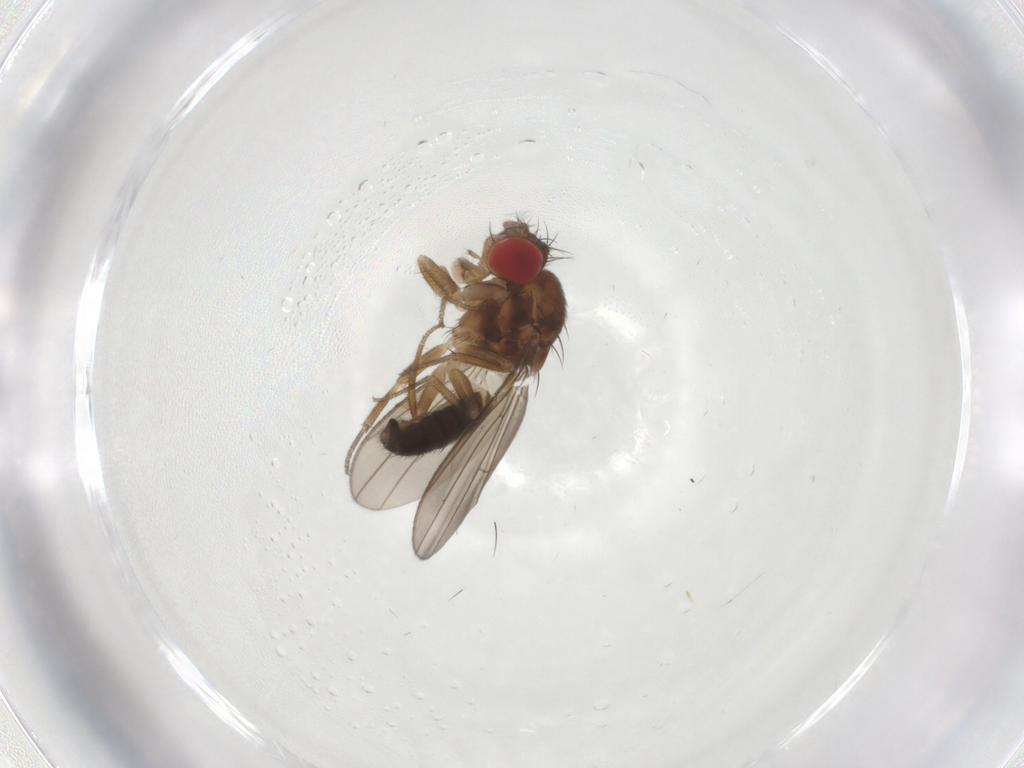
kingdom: Animalia
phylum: Arthropoda
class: Insecta
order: Diptera
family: Drosophilidae
